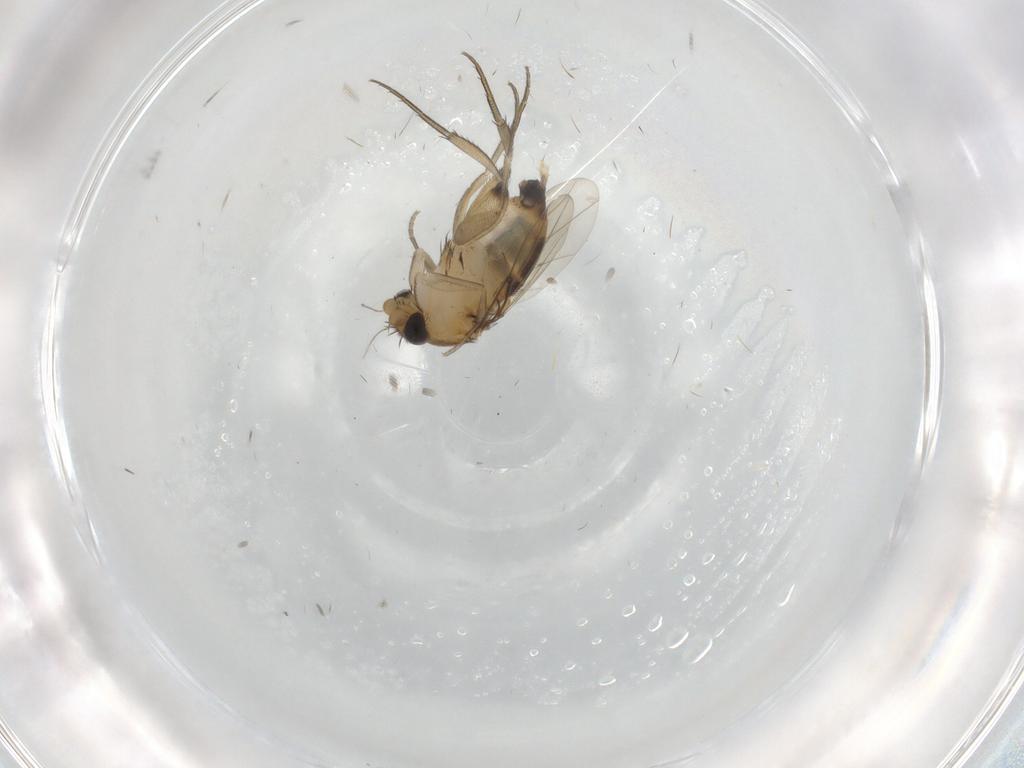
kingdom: Animalia
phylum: Arthropoda
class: Insecta
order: Diptera
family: Phoridae
